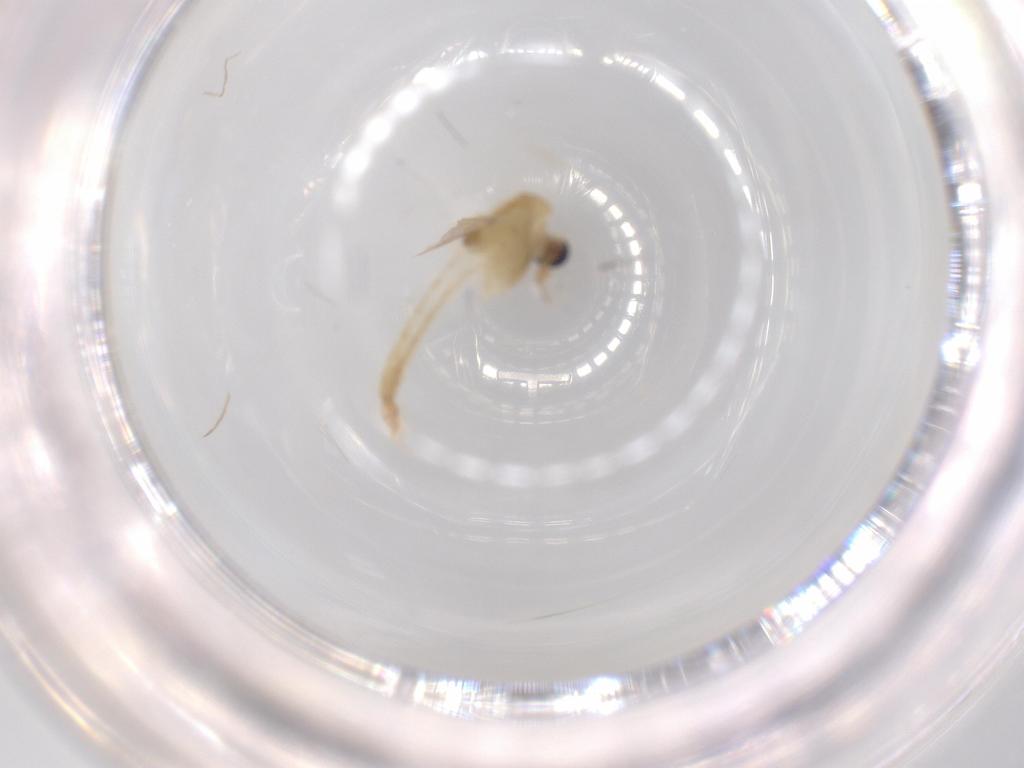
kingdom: Animalia
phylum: Arthropoda
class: Insecta
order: Diptera
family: Chironomidae
